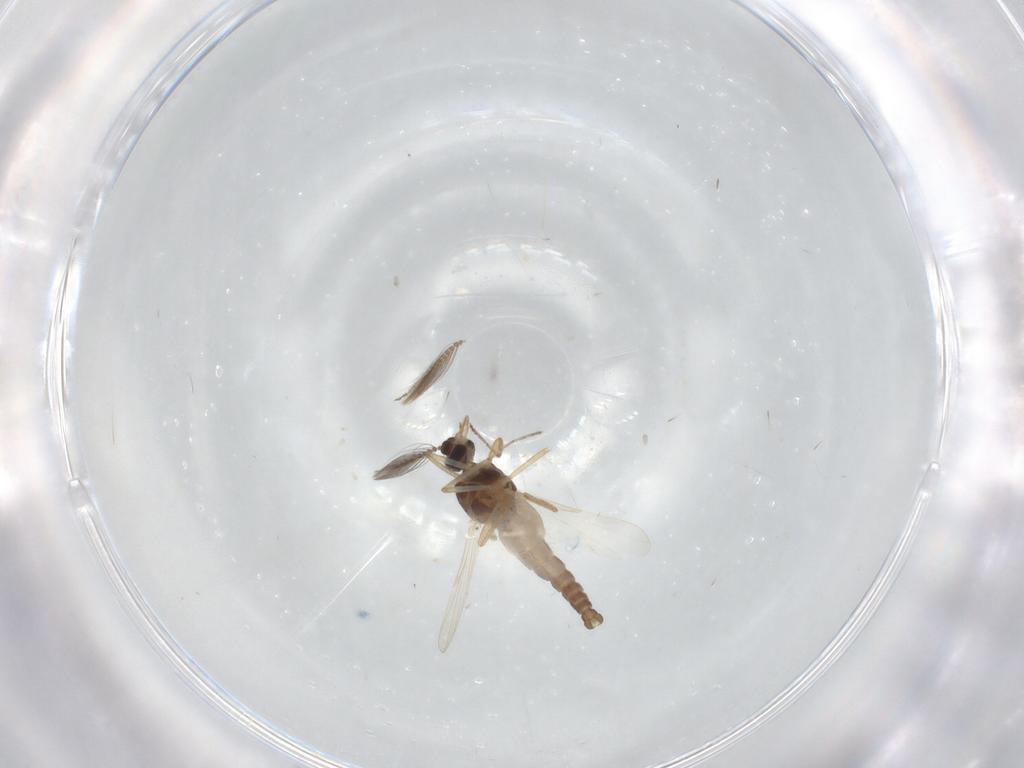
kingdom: Animalia
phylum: Arthropoda
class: Insecta
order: Diptera
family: Ceratopogonidae
